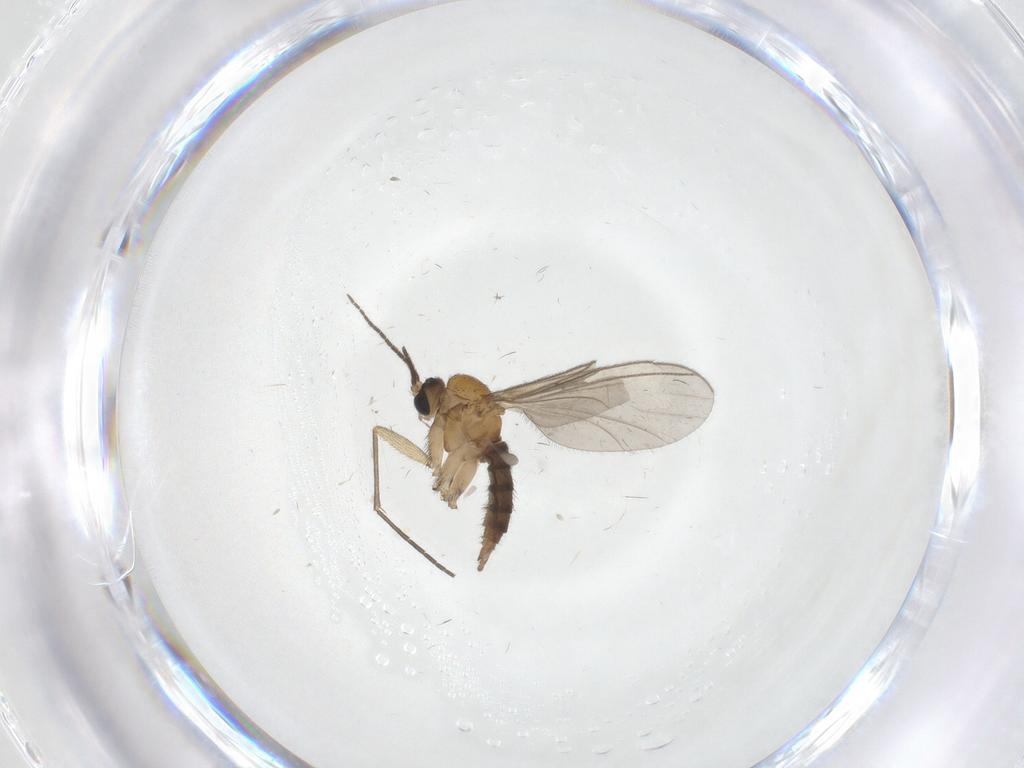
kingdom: Animalia
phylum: Arthropoda
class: Insecta
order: Diptera
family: Sciaridae
